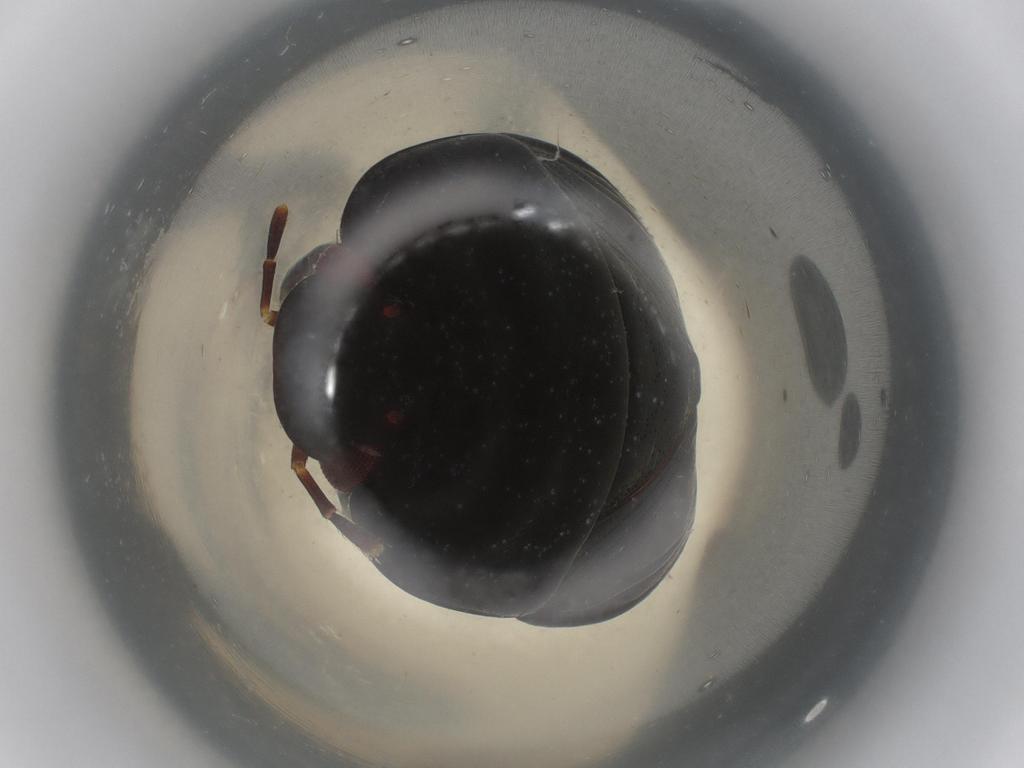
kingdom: Animalia
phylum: Arthropoda
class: Insecta
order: Hemiptera
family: Cydnidae
